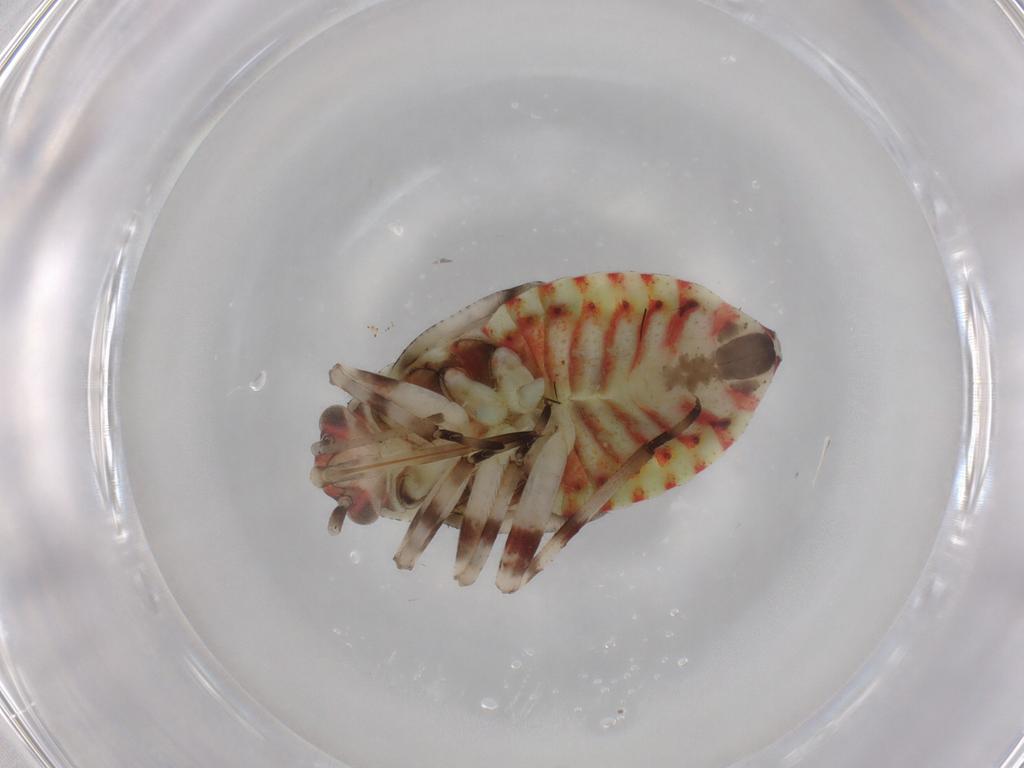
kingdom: Animalia
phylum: Arthropoda
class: Insecta
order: Hemiptera
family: Miridae
